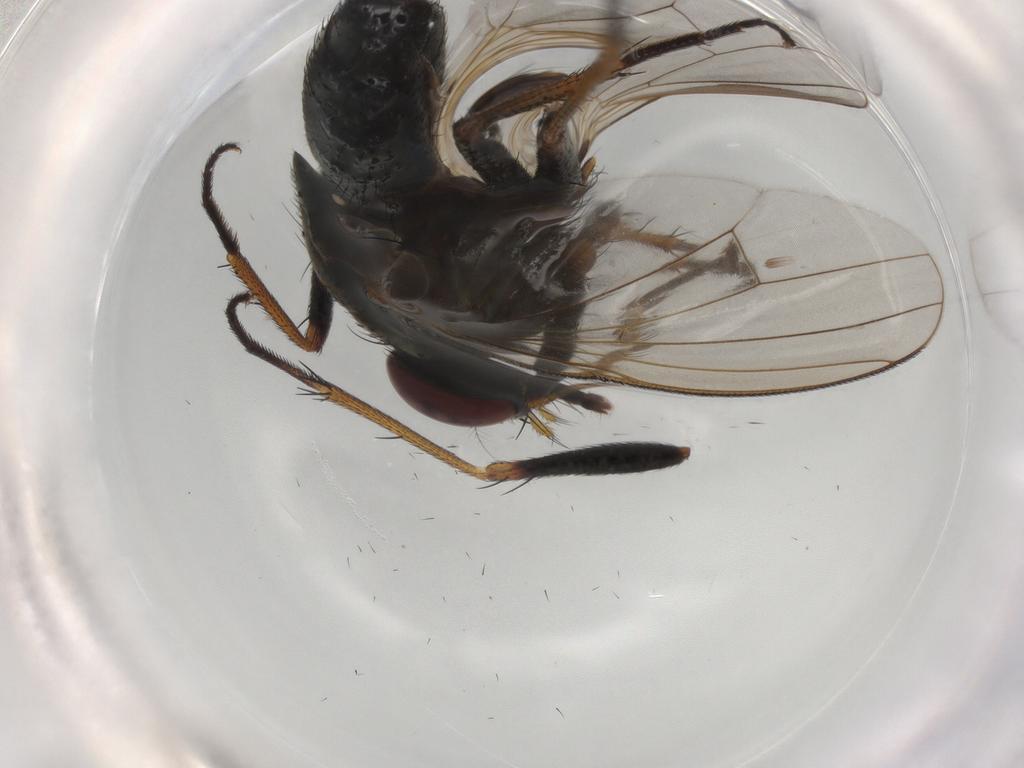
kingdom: Animalia
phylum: Arthropoda
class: Insecta
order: Diptera
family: Muscidae
